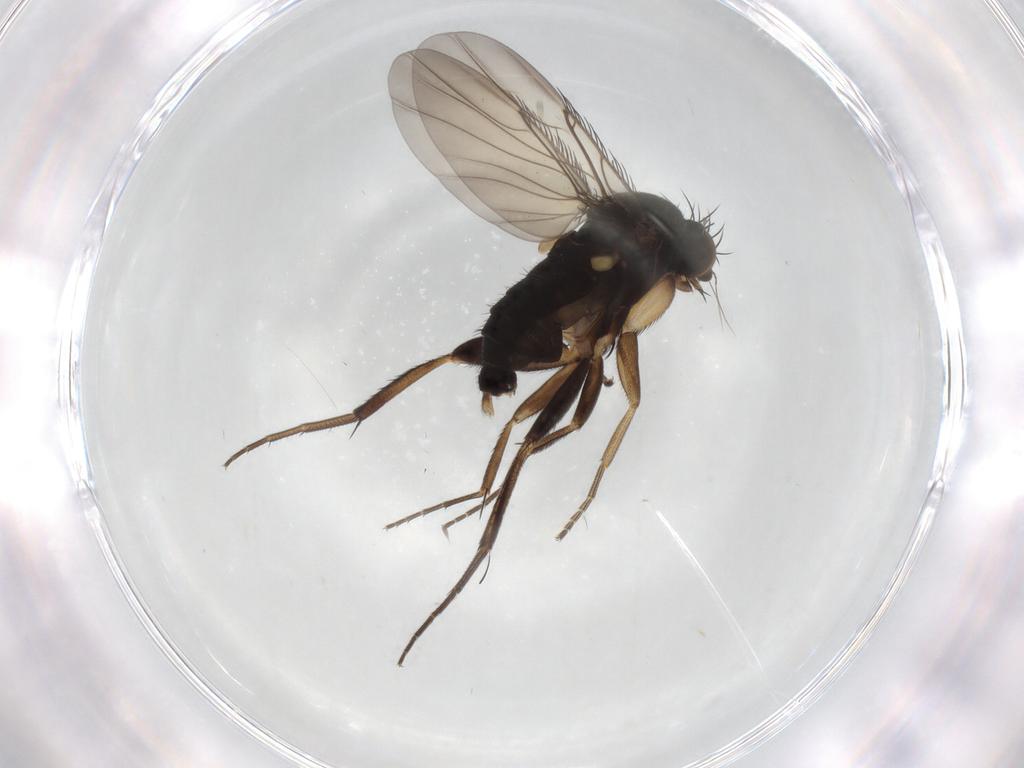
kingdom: Animalia
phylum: Arthropoda
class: Insecta
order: Diptera
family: Phoridae
